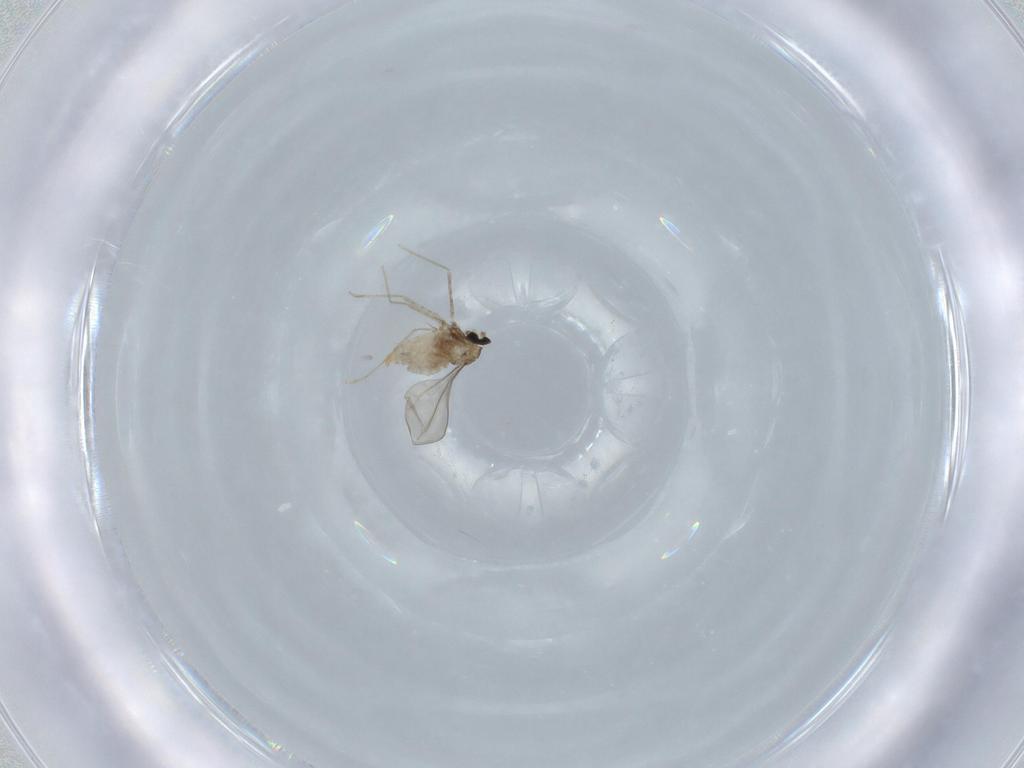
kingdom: Animalia
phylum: Arthropoda
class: Insecta
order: Diptera
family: Cecidomyiidae
